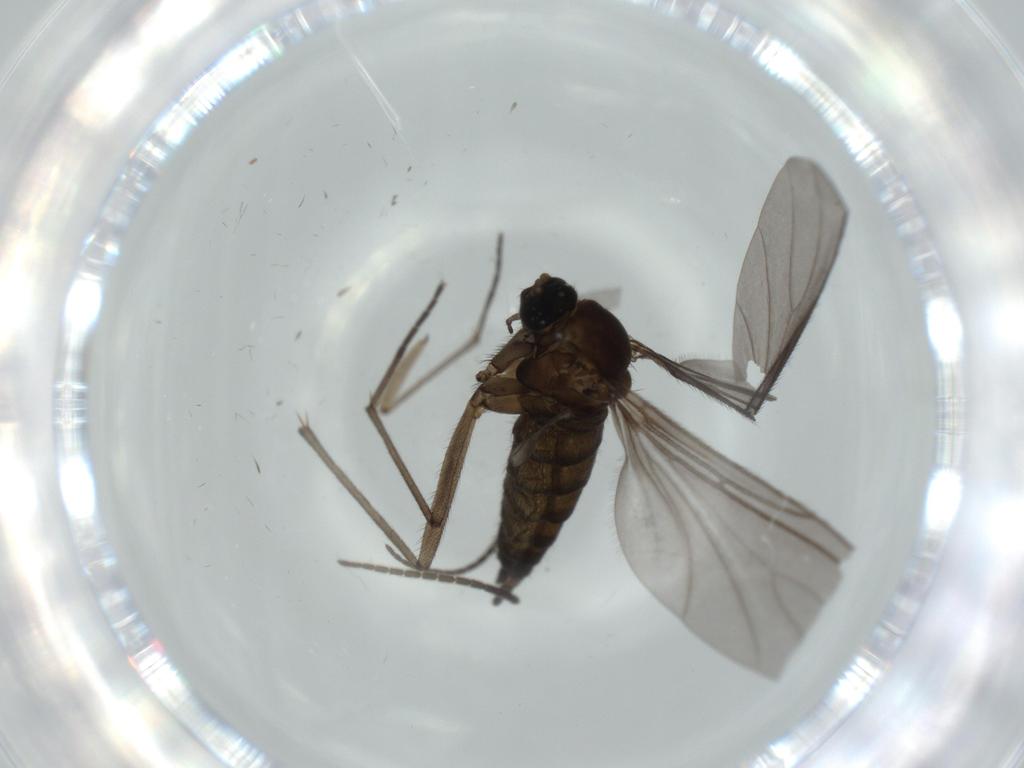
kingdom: Animalia
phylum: Arthropoda
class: Insecta
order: Diptera
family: Sciaridae
